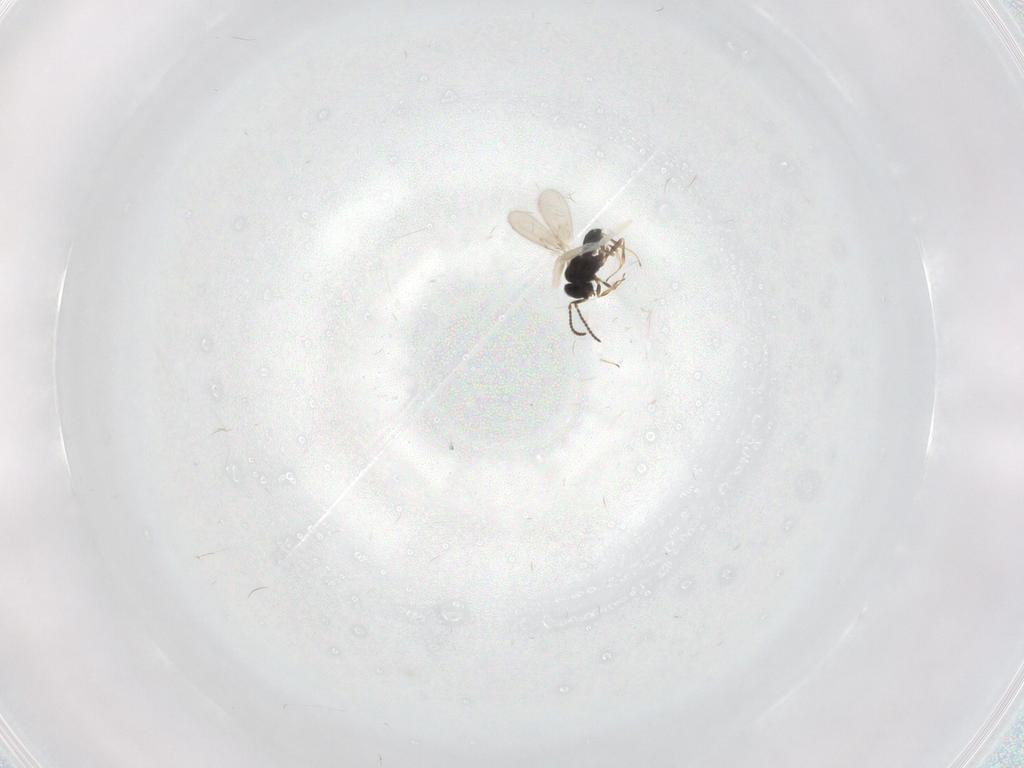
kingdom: Animalia
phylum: Arthropoda
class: Insecta
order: Hymenoptera
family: Scelionidae
